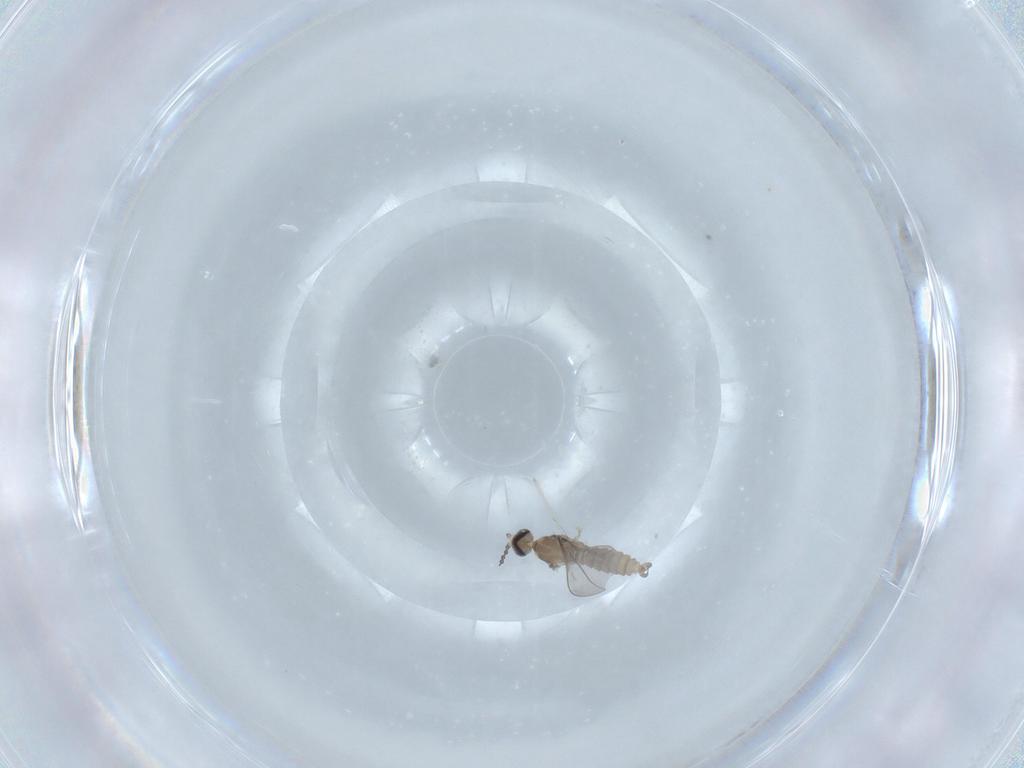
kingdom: Animalia
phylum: Arthropoda
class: Insecta
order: Diptera
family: Cecidomyiidae
